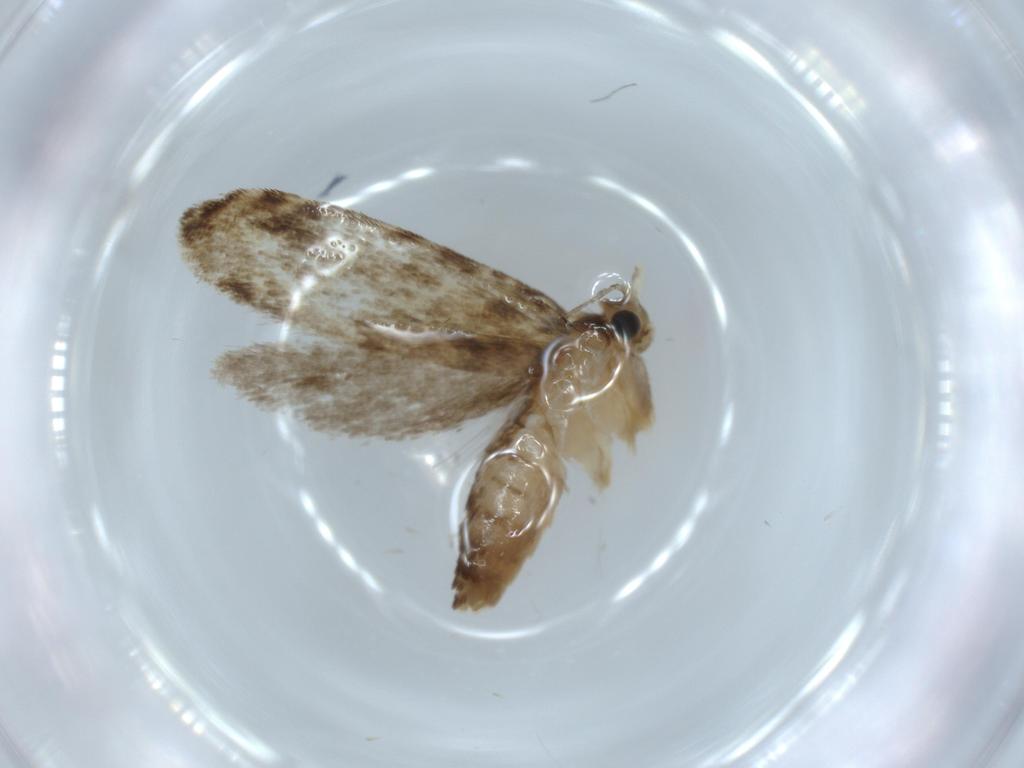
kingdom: Animalia
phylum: Arthropoda
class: Insecta
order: Lepidoptera
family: Tineidae
